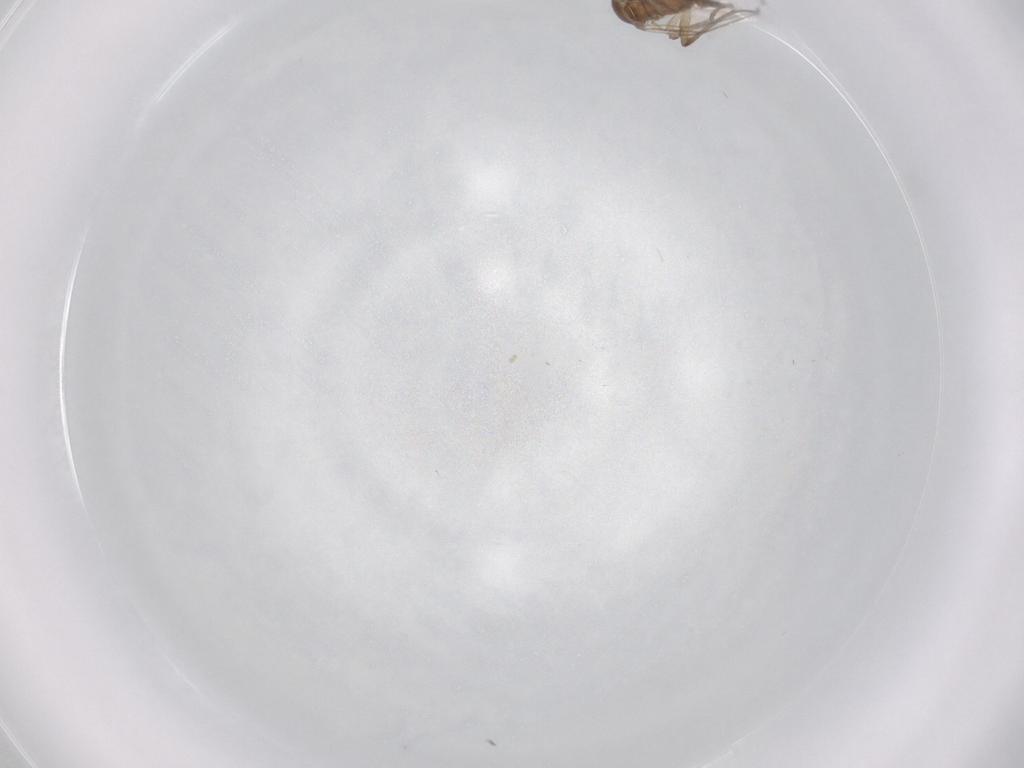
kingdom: Animalia
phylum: Arthropoda
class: Insecta
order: Diptera
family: Sciaridae
